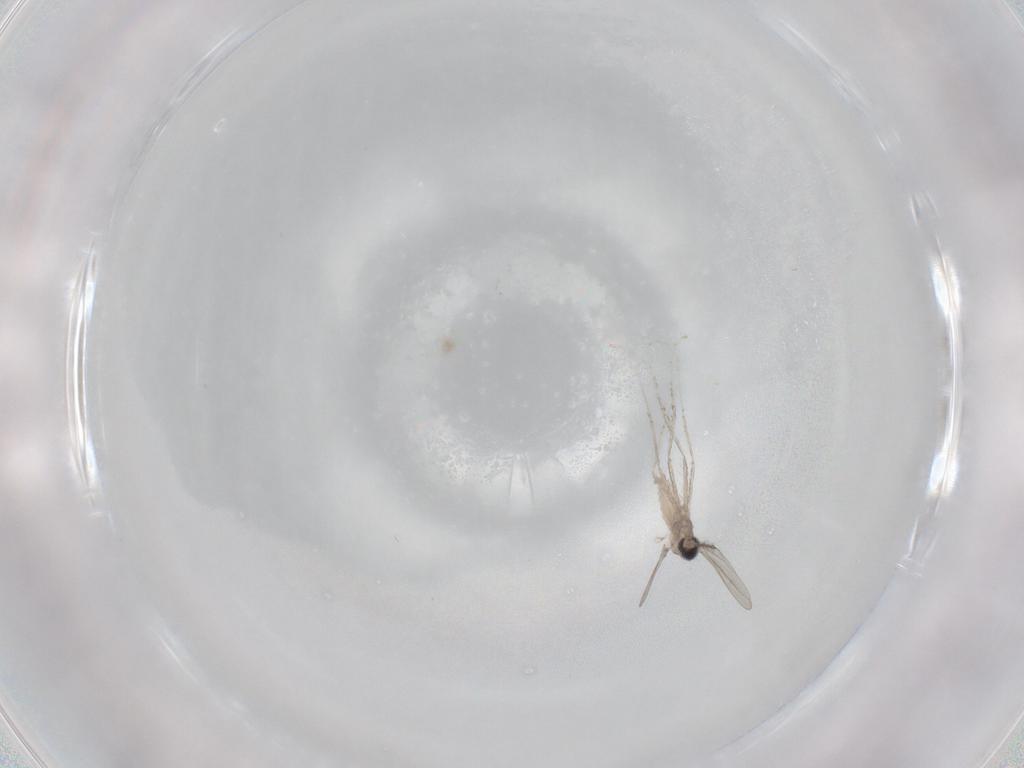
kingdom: Animalia
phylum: Arthropoda
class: Insecta
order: Diptera
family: Cecidomyiidae
